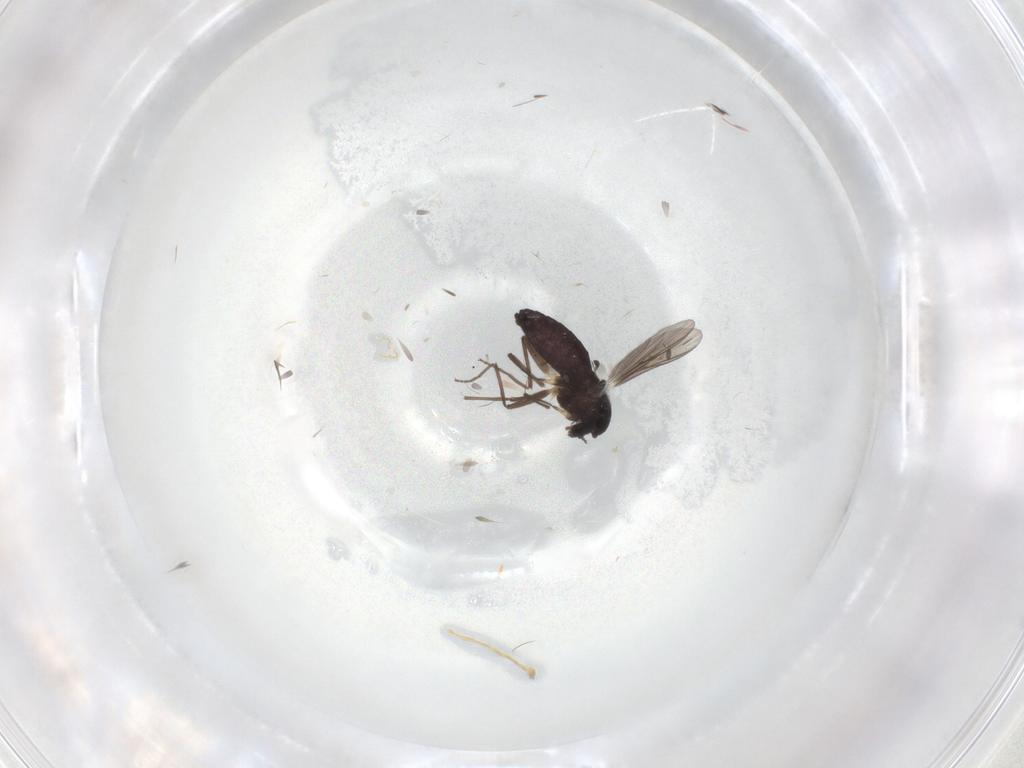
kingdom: Animalia
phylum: Arthropoda
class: Insecta
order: Diptera
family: Chironomidae
